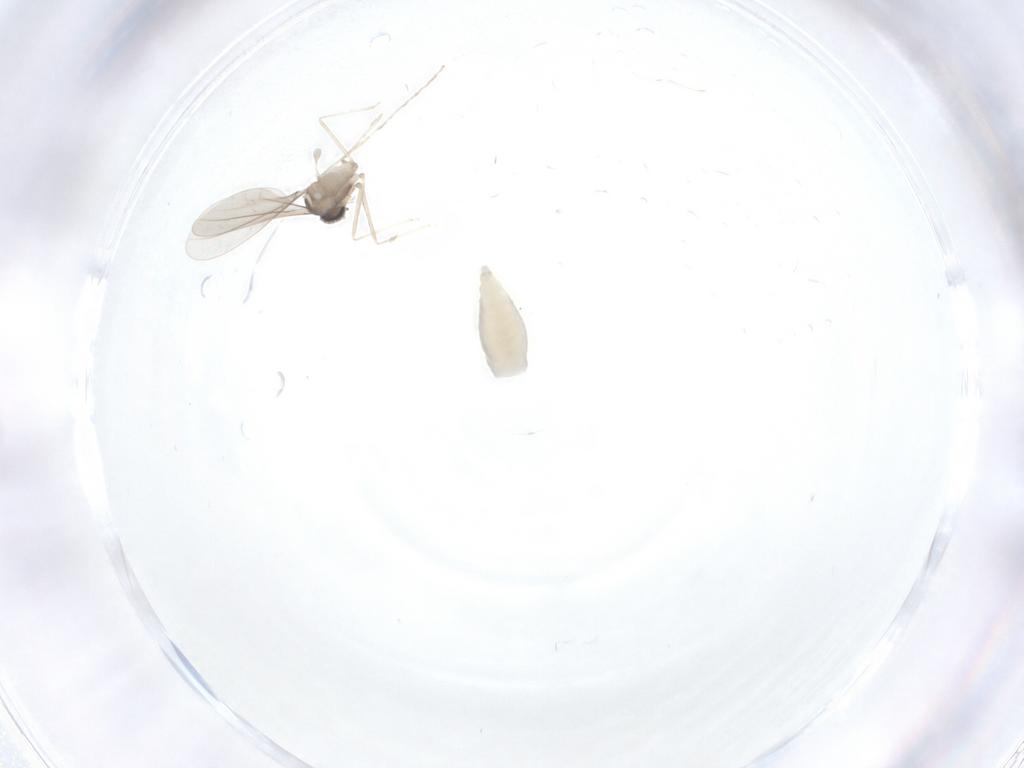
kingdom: Animalia
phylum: Arthropoda
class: Insecta
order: Diptera
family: Cecidomyiidae
